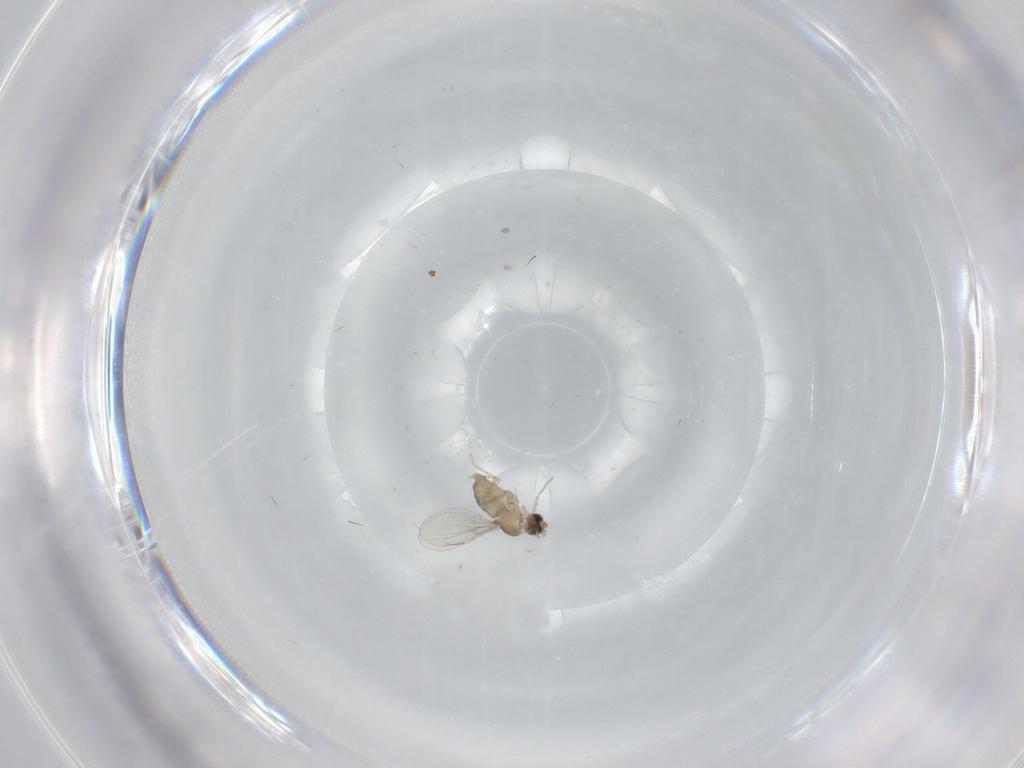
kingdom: Animalia
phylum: Arthropoda
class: Insecta
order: Diptera
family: Cecidomyiidae
